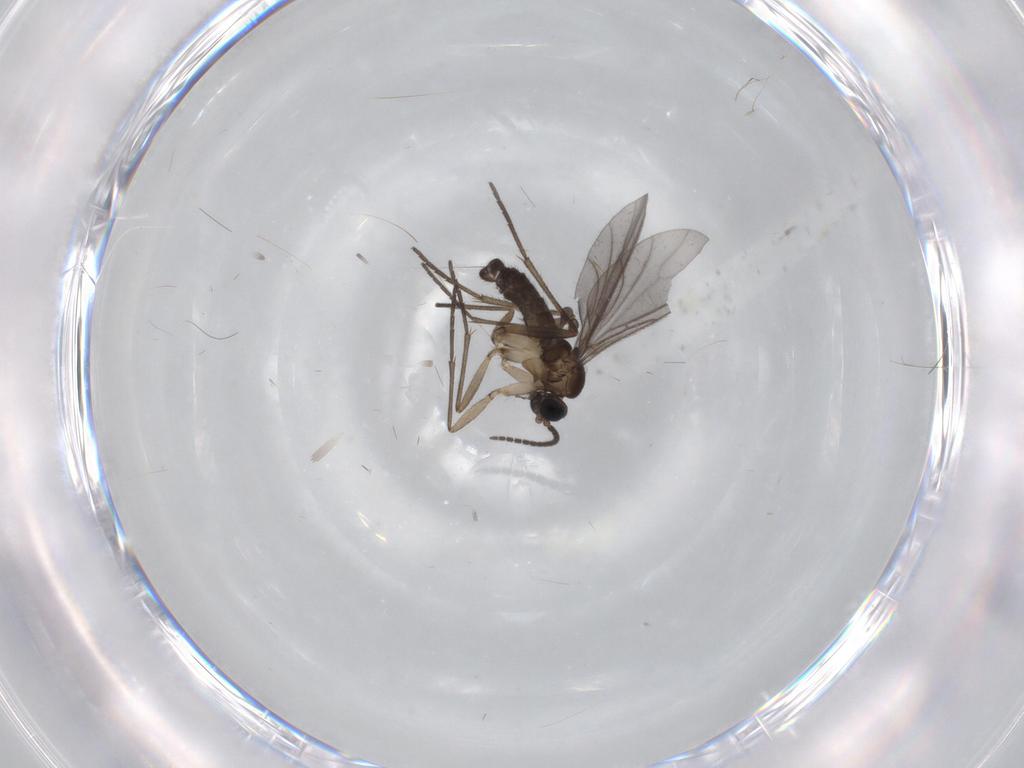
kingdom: Animalia
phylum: Arthropoda
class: Insecta
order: Diptera
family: Sciaridae
